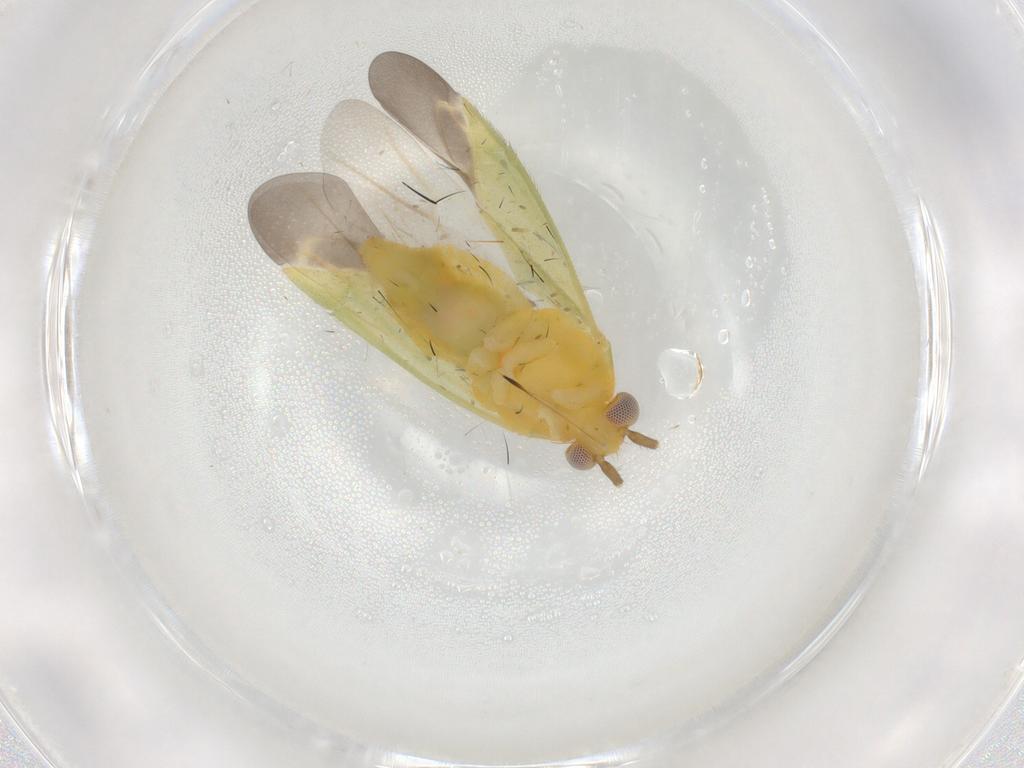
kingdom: Animalia
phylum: Arthropoda
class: Insecta
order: Hemiptera
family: Miridae
